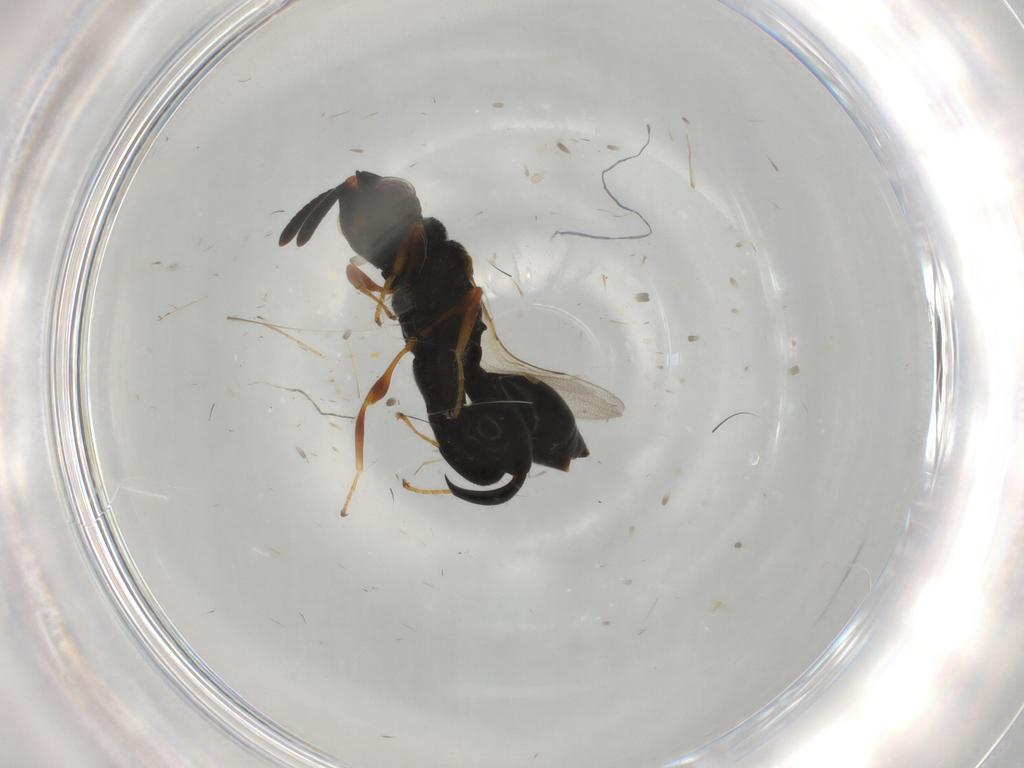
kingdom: Animalia
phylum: Arthropoda
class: Insecta
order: Hymenoptera
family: Chalcididae
